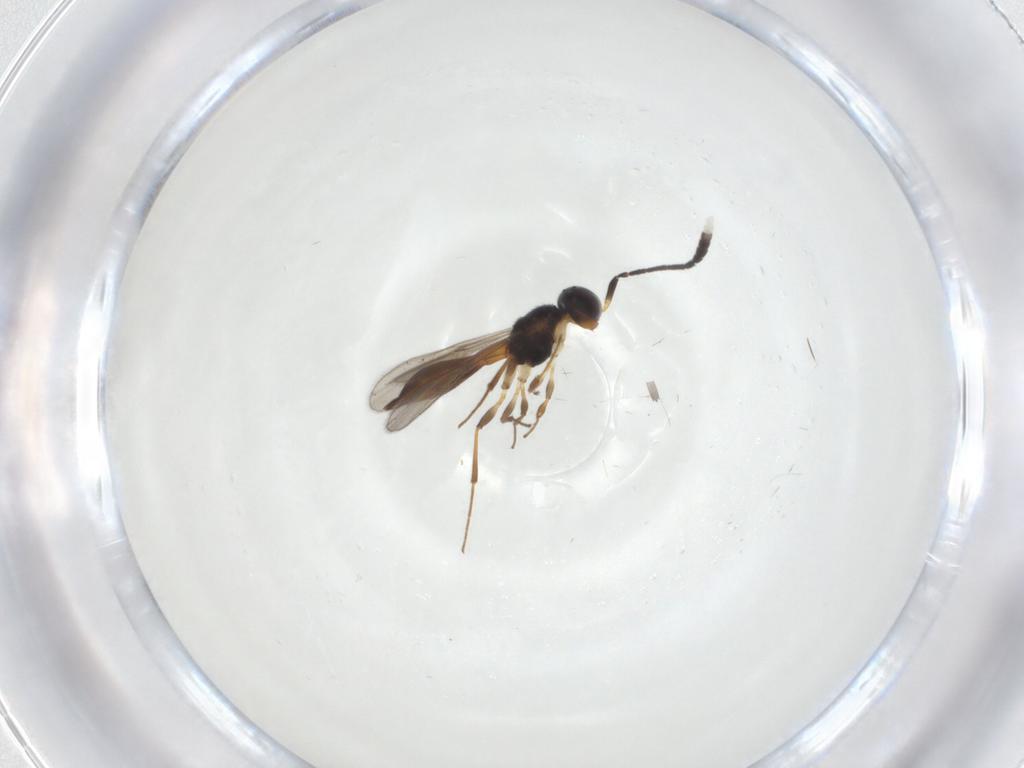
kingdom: Animalia
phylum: Arthropoda
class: Insecta
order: Hymenoptera
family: Scelionidae
